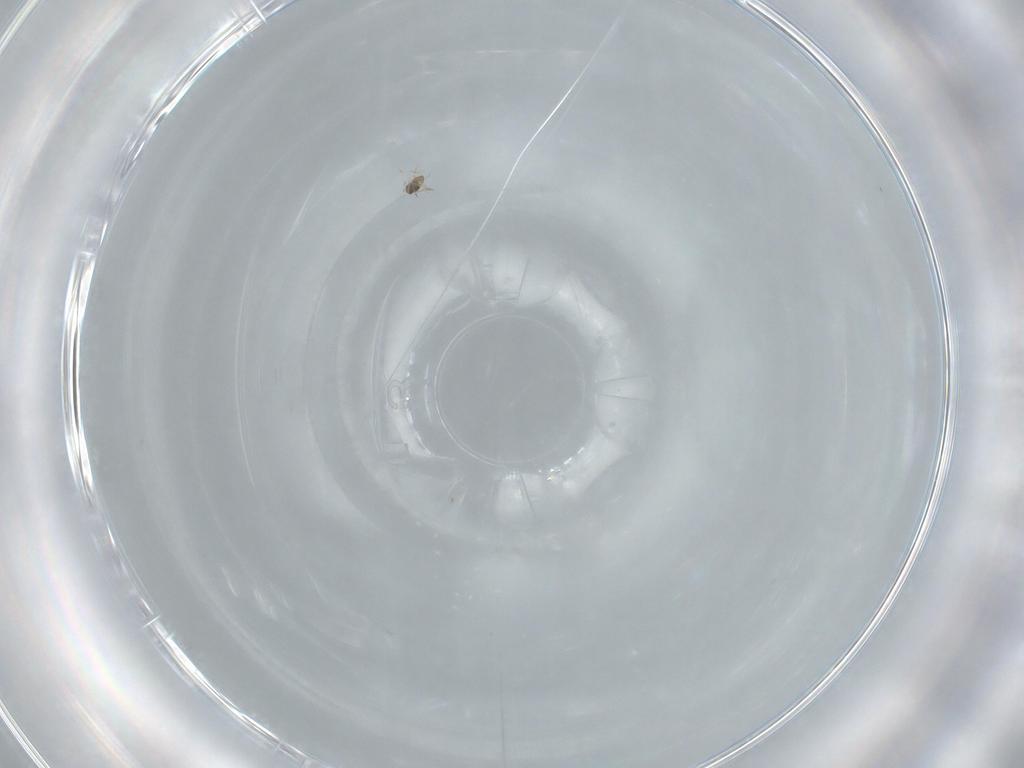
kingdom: Animalia
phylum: Arthropoda
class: Insecta
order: Hymenoptera
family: Mymaridae
